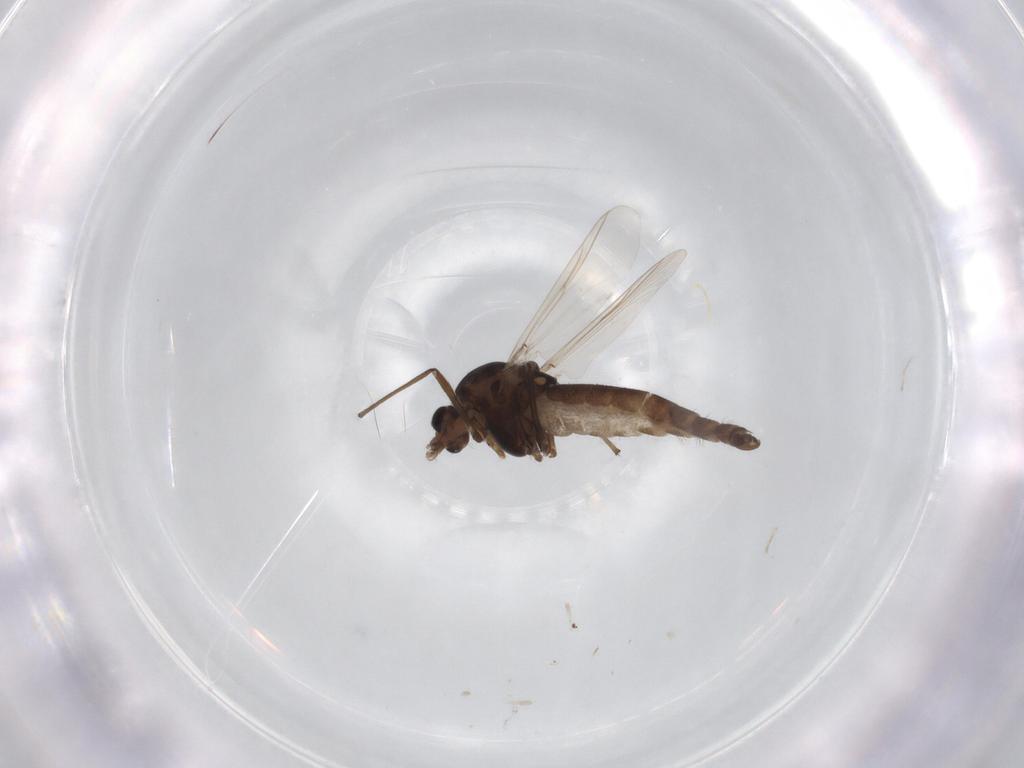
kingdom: Animalia
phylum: Arthropoda
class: Insecta
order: Diptera
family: Chironomidae
